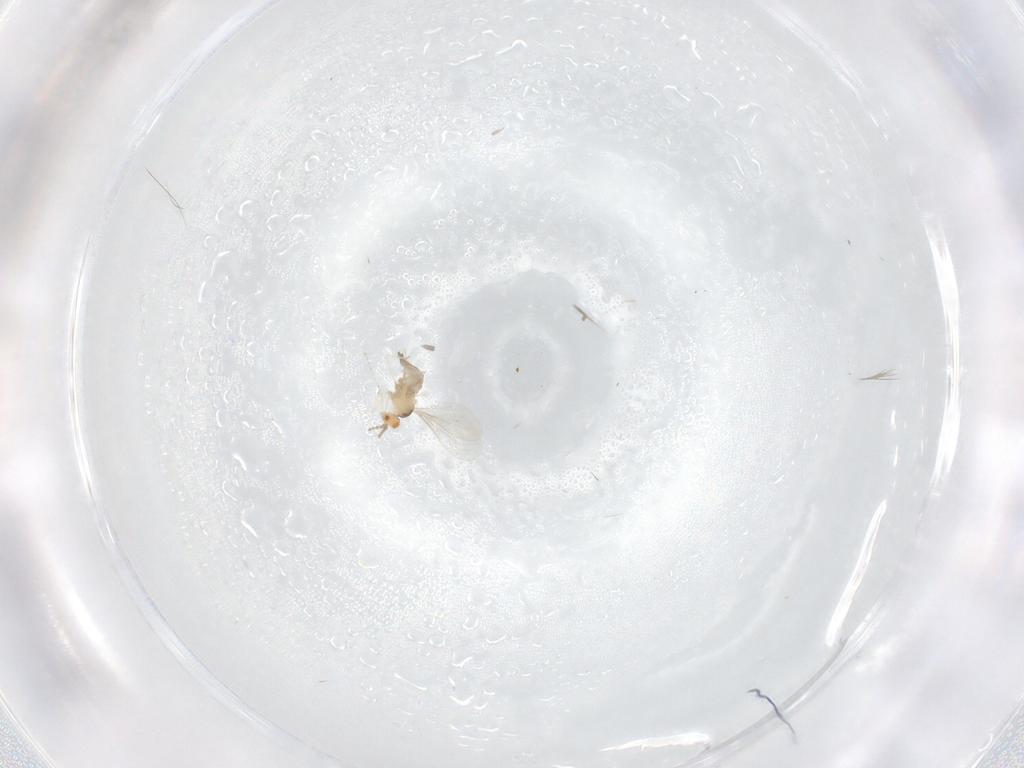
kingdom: Animalia
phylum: Arthropoda
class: Insecta
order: Diptera
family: Cecidomyiidae
